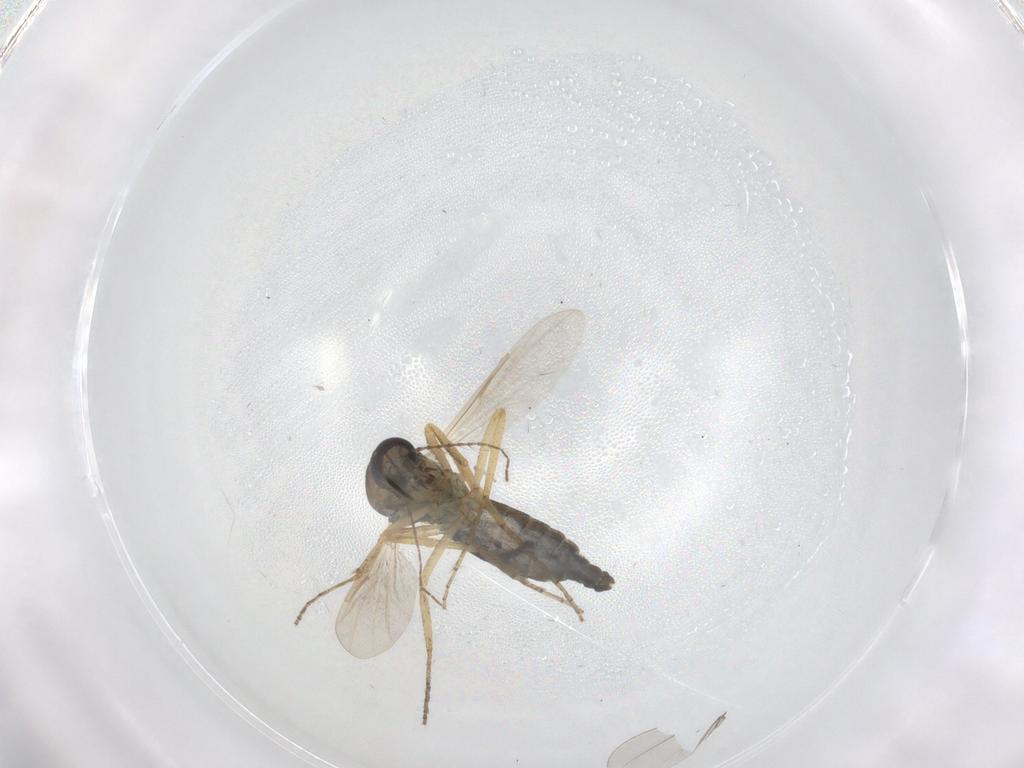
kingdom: Animalia
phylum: Arthropoda
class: Insecta
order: Diptera
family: Ceratopogonidae
